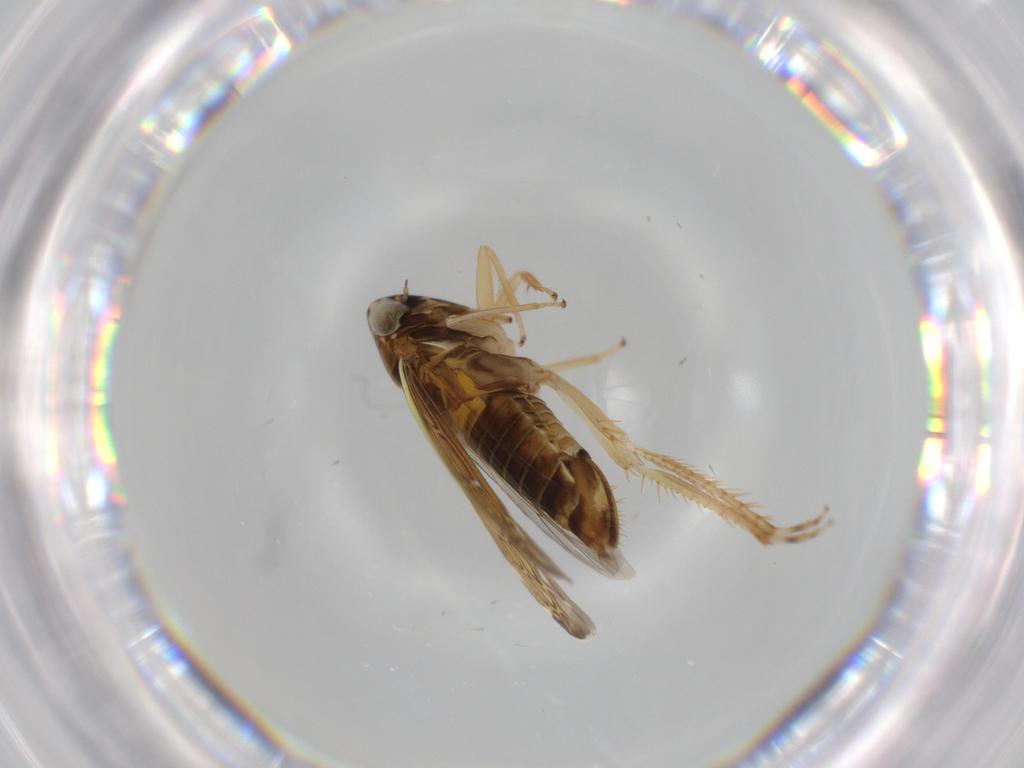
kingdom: Animalia
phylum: Arthropoda
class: Insecta
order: Hemiptera
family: Cicadellidae
